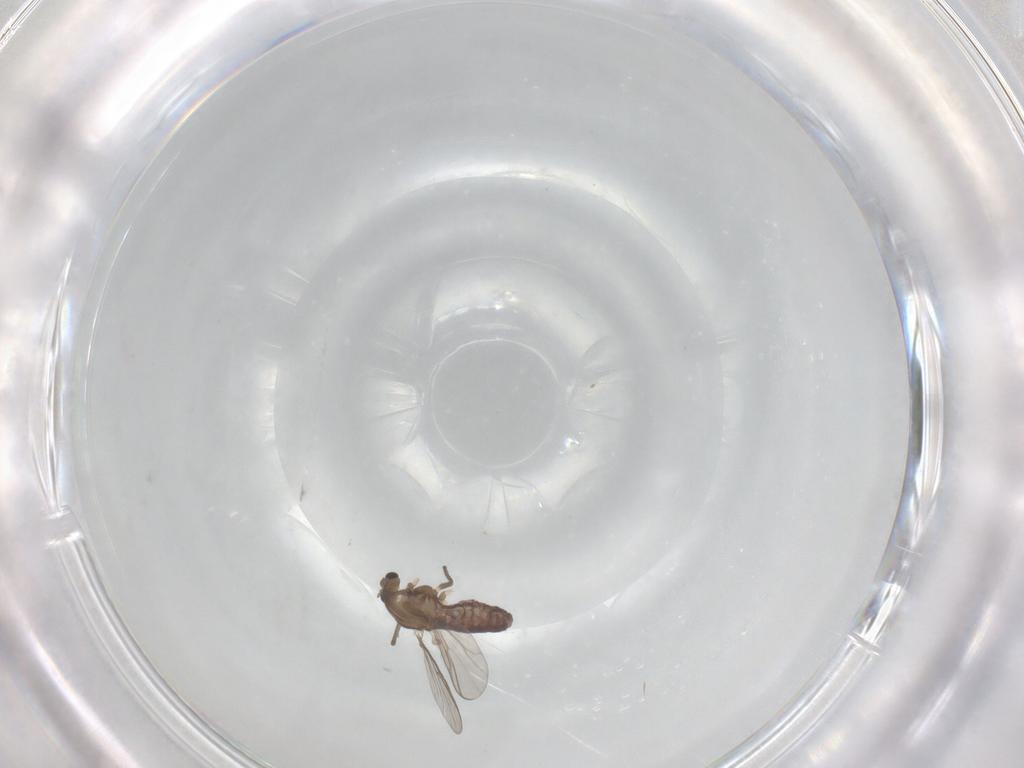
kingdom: Animalia
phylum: Arthropoda
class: Insecta
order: Diptera
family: Chironomidae
